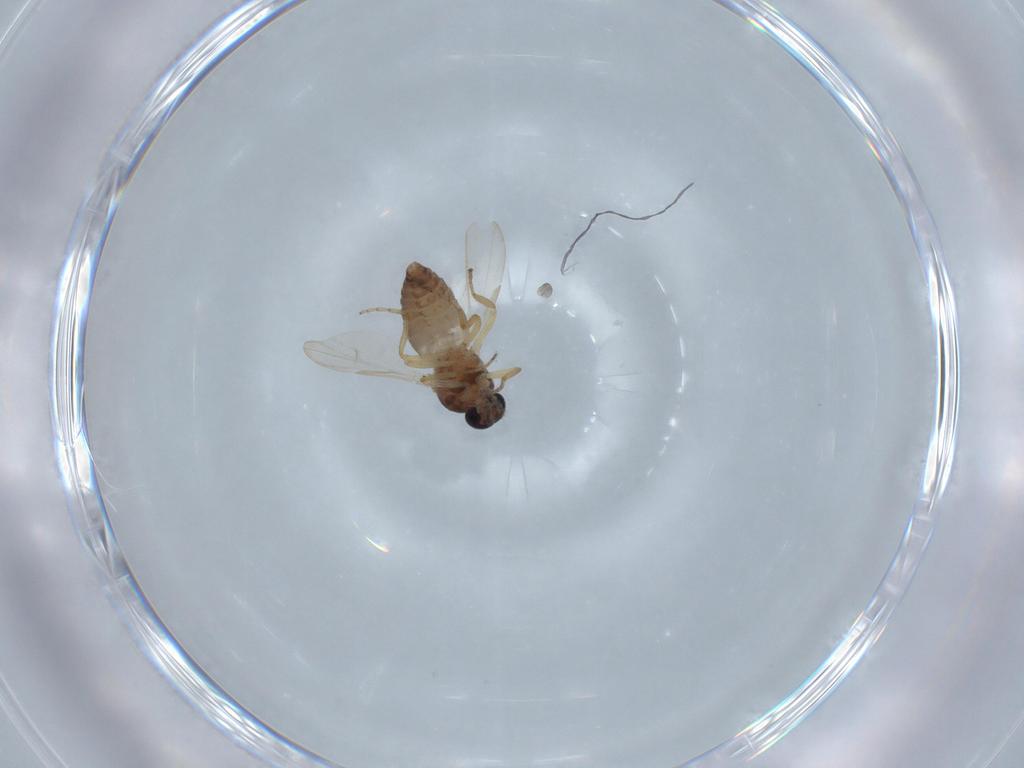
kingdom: Animalia
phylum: Arthropoda
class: Insecta
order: Diptera
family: Ceratopogonidae
